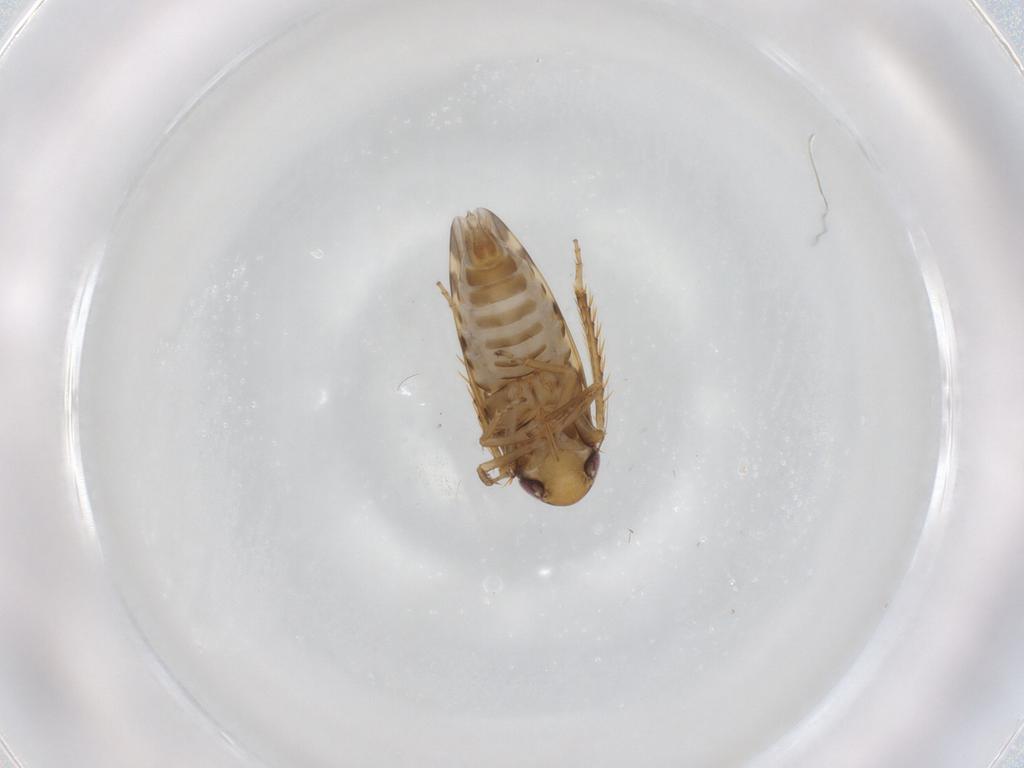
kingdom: Animalia
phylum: Arthropoda
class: Insecta
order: Hemiptera
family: Cicadellidae
